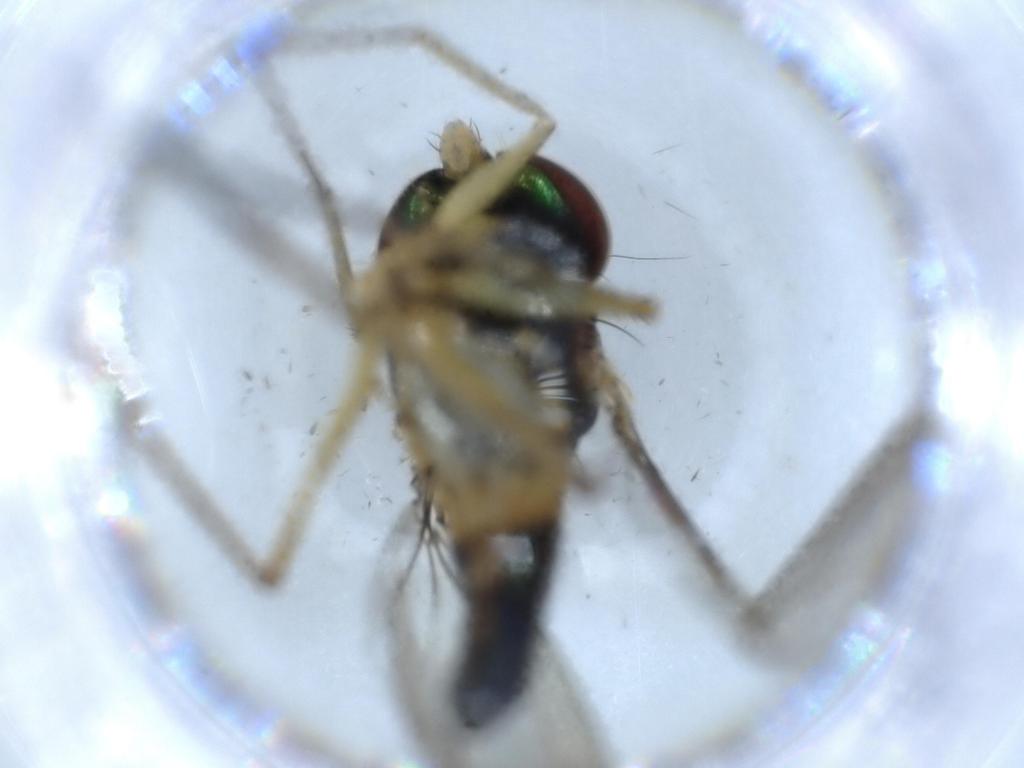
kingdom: Animalia
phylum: Arthropoda
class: Insecta
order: Diptera
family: Dolichopodidae
